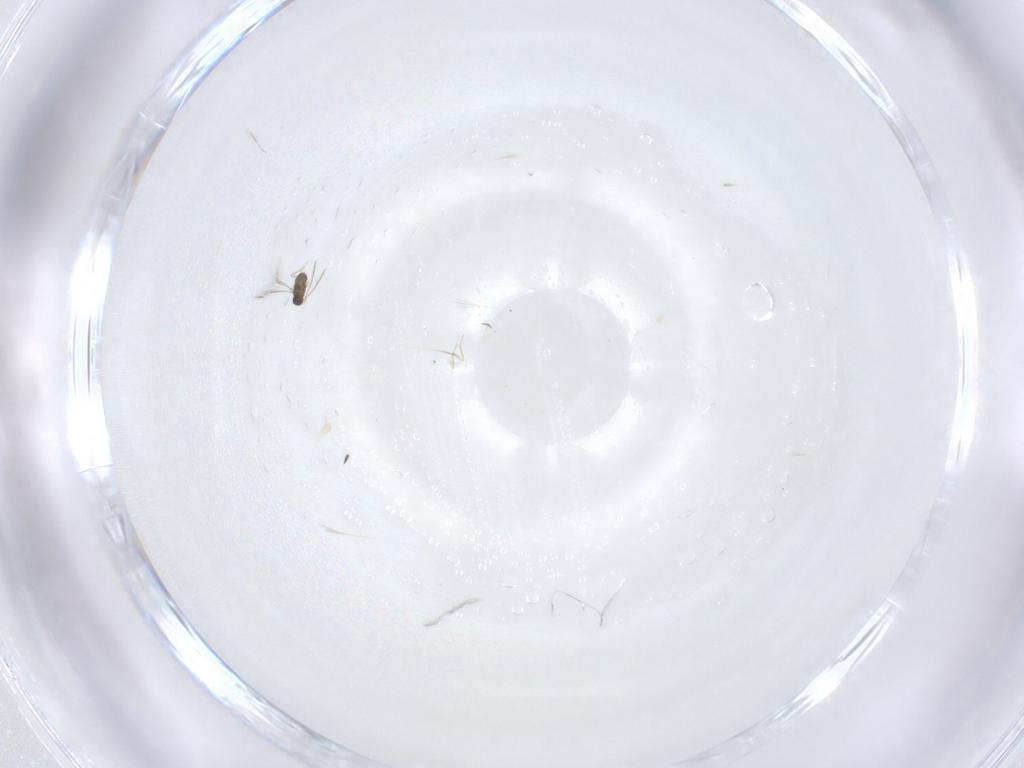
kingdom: Animalia
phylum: Arthropoda
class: Insecta
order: Hymenoptera
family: Mymaridae
